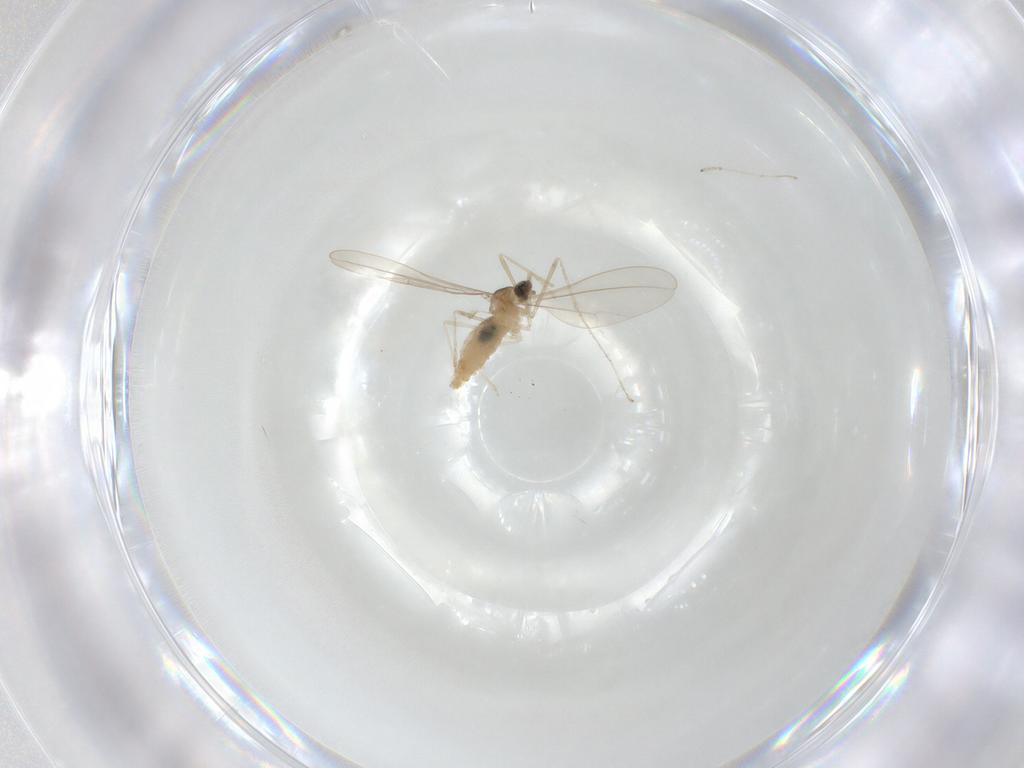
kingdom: Animalia
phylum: Arthropoda
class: Insecta
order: Diptera
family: Cecidomyiidae
